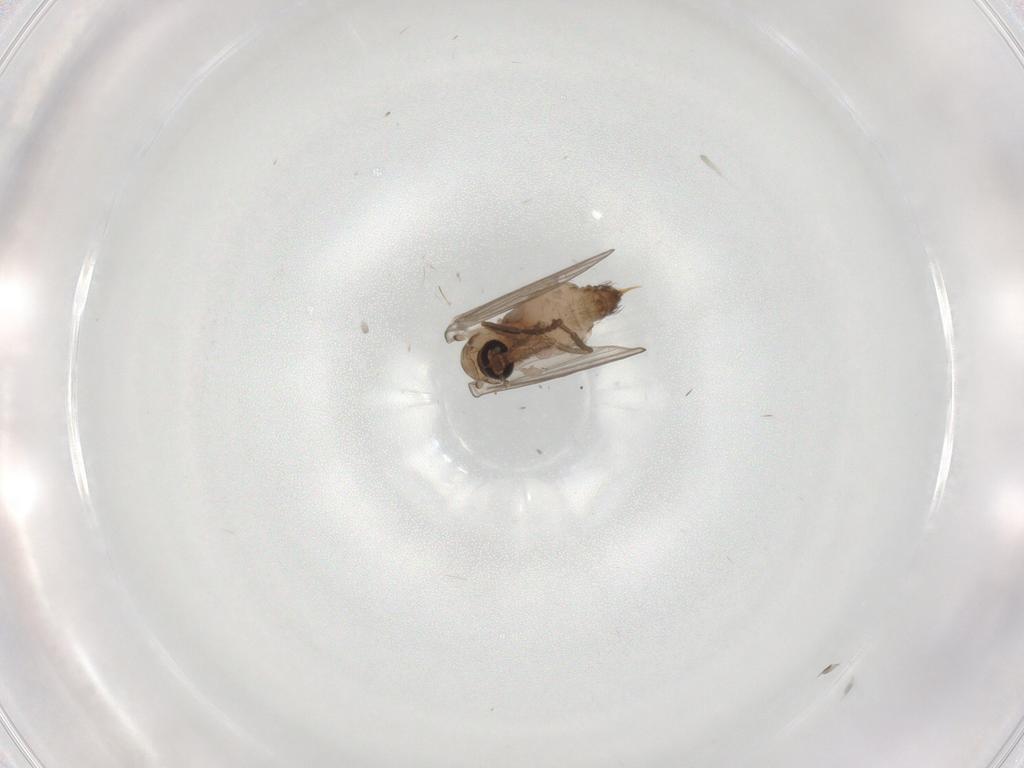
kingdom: Animalia
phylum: Arthropoda
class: Insecta
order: Diptera
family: Psychodidae
